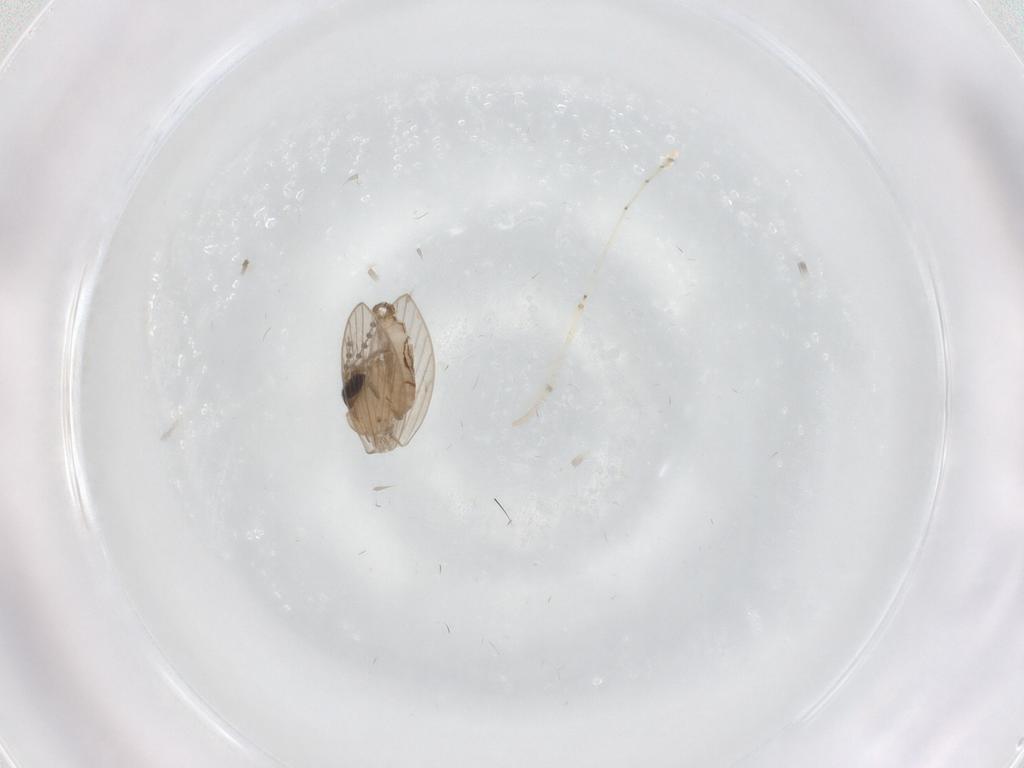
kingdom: Animalia
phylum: Arthropoda
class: Insecta
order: Diptera
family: Psychodidae
